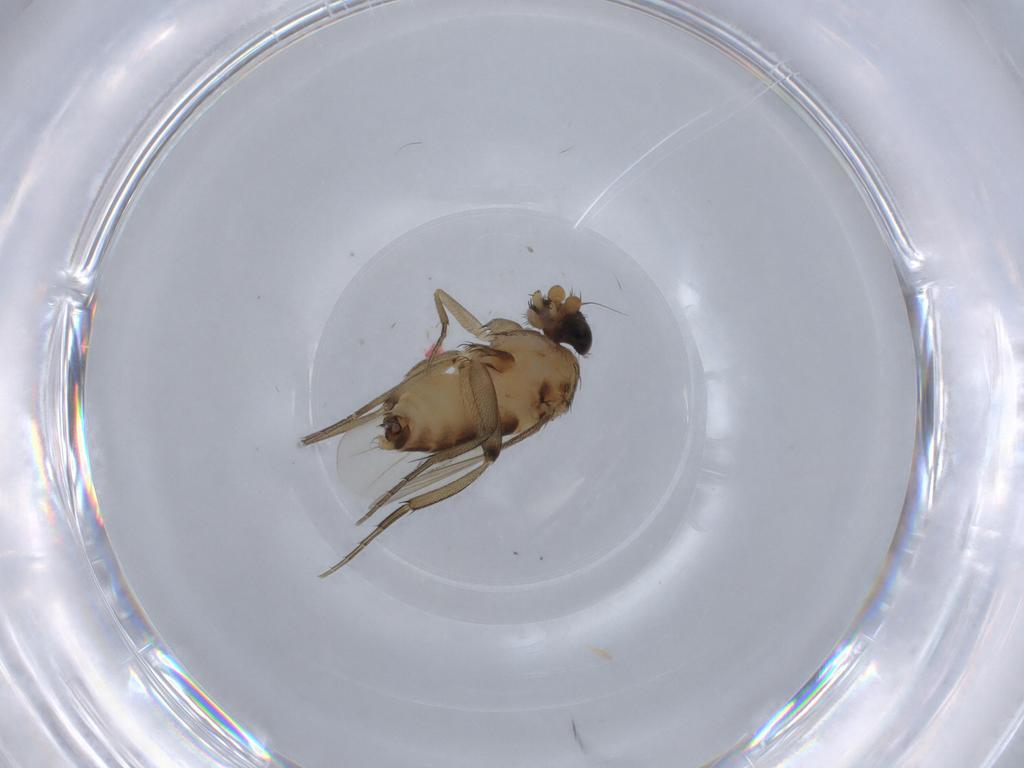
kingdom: Animalia
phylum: Arthropoda
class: Insecta
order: Diptera
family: Phoridae
